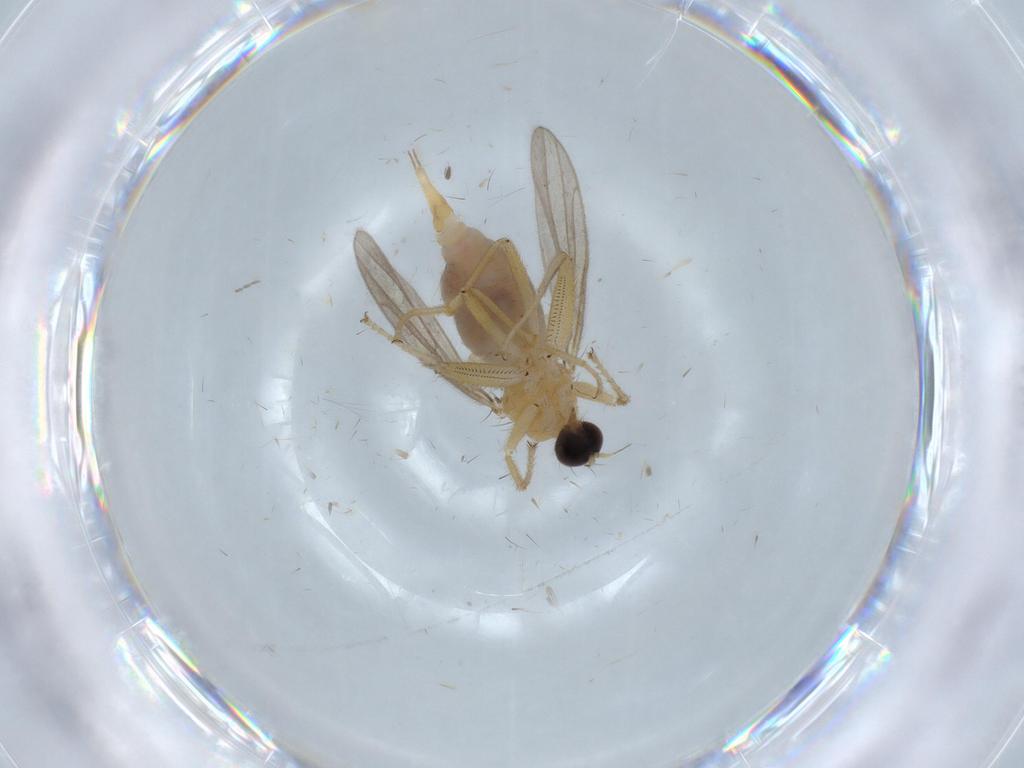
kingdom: Animalia
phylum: Arthropoda
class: Insecta
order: Diptera
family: Hybotidae
